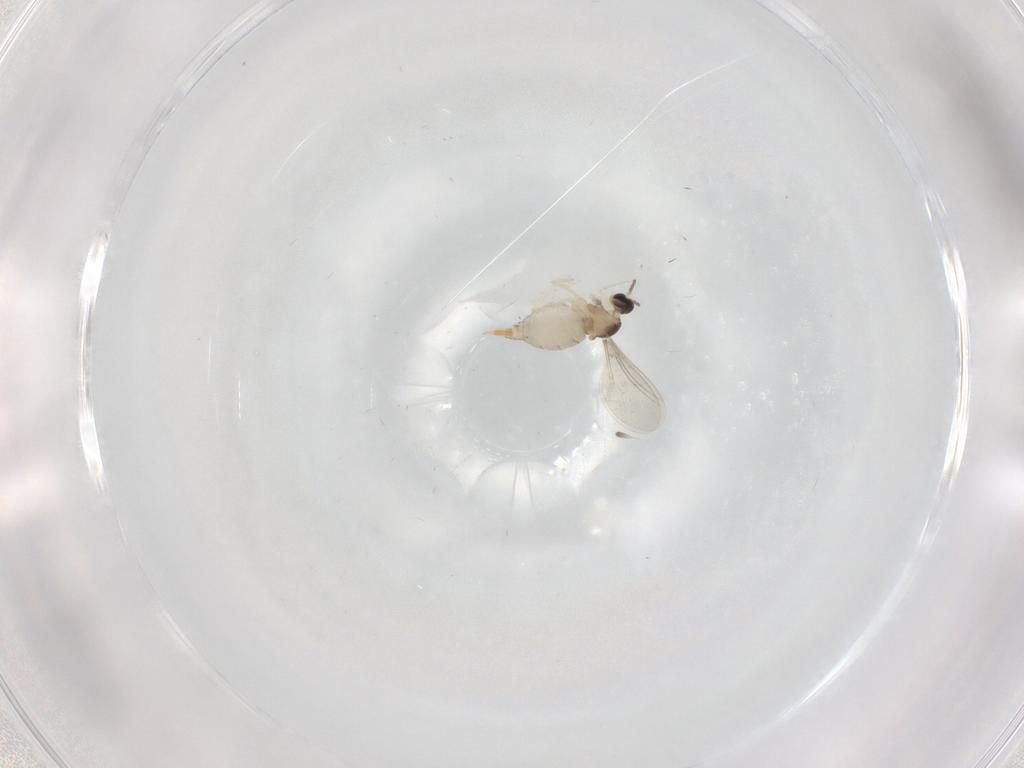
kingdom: Animalia
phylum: Arthropoda
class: Insecta
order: Diptera
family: Cecidomyiidae
